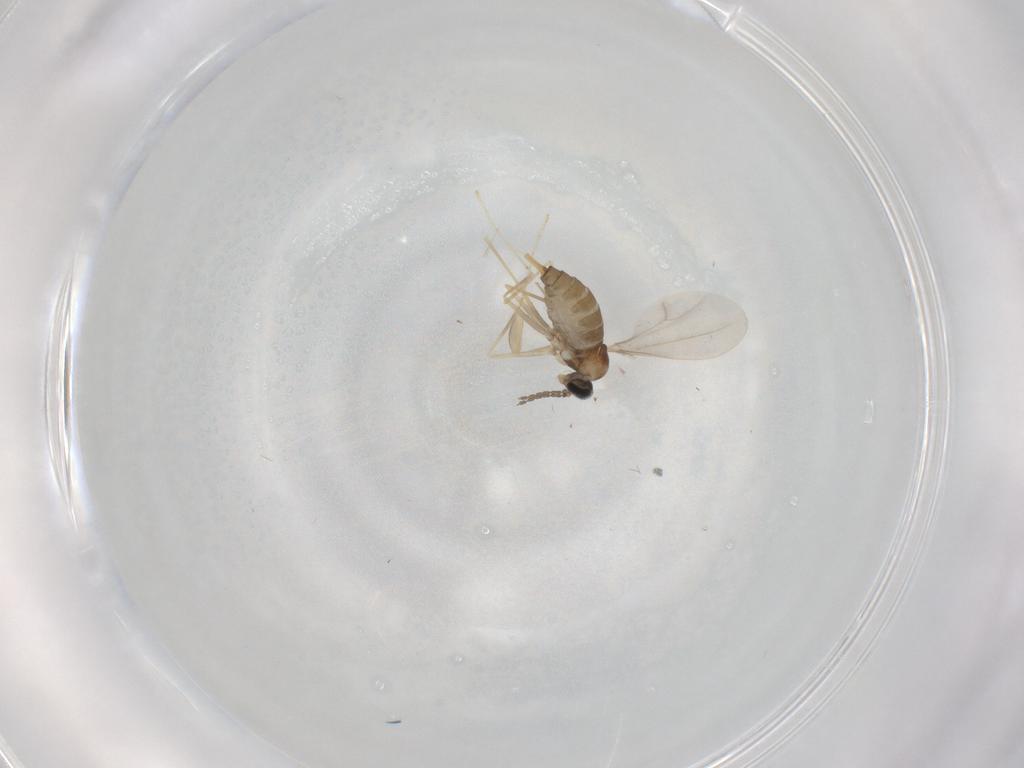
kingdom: Animalia
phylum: Arthropoda
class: Insecta
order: Diptera
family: Cecidomyiidae
